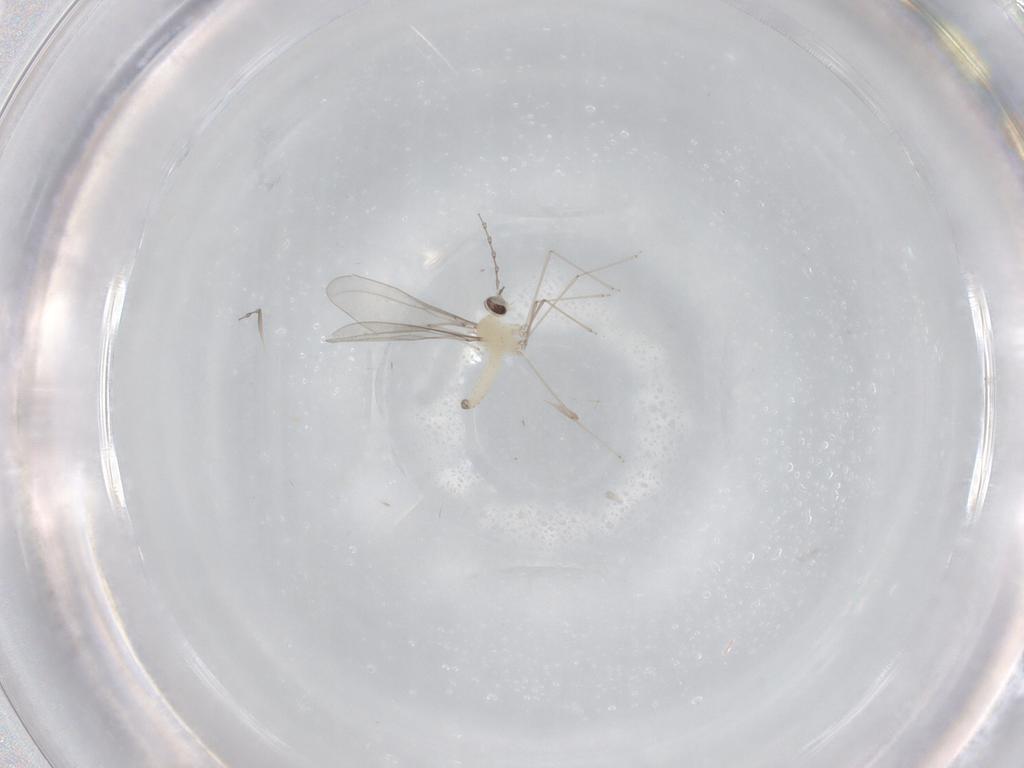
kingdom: Animalia
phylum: Arthropoda
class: Insecta
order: Diptera
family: Cecidomyiidae
